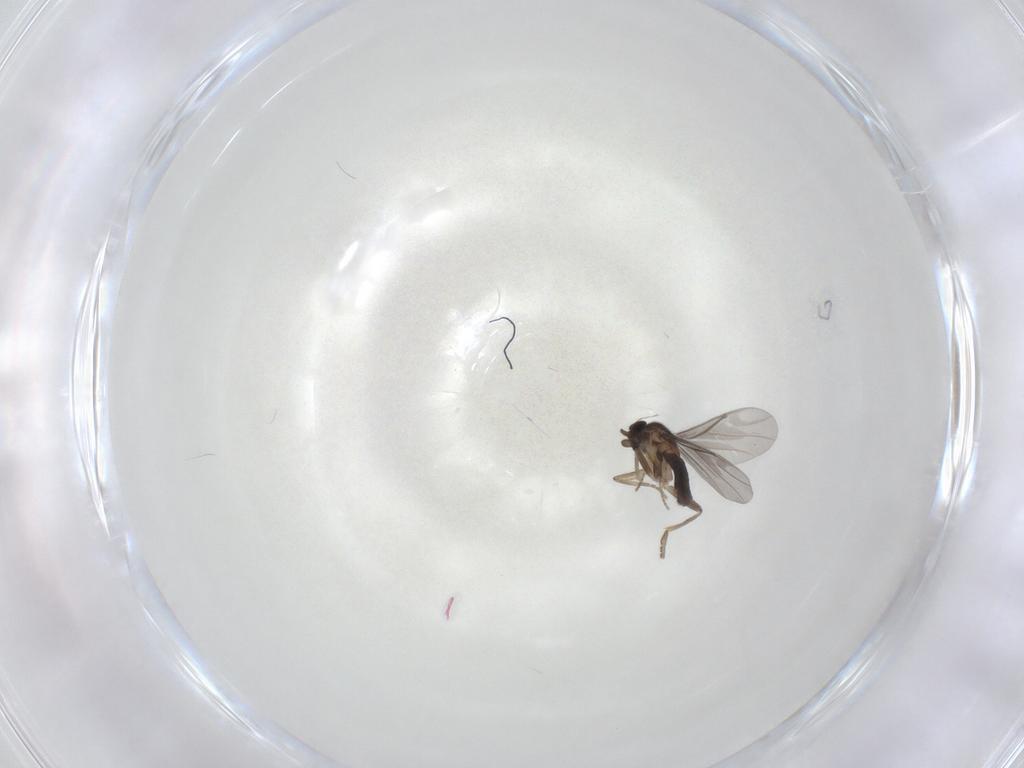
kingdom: Animalia
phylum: Arthropoda
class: Insecta
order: Diptera
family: Phoridae
